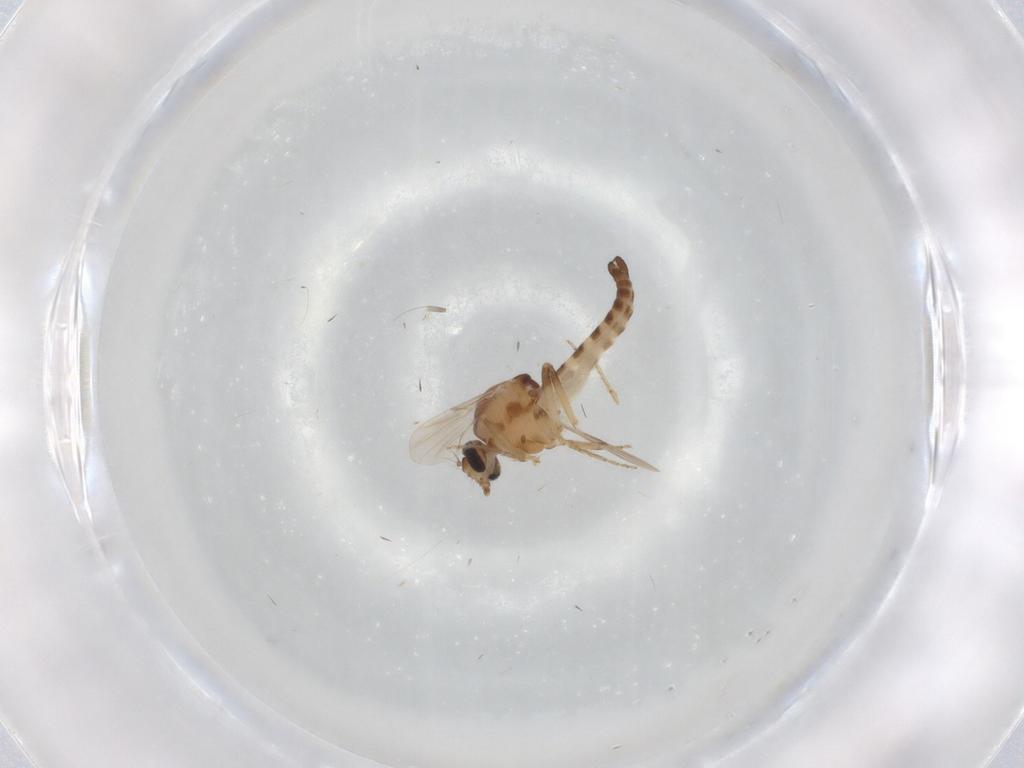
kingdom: Animalia
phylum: Arthropoda
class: Insecta
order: Diptera
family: Ceratopogonidae
